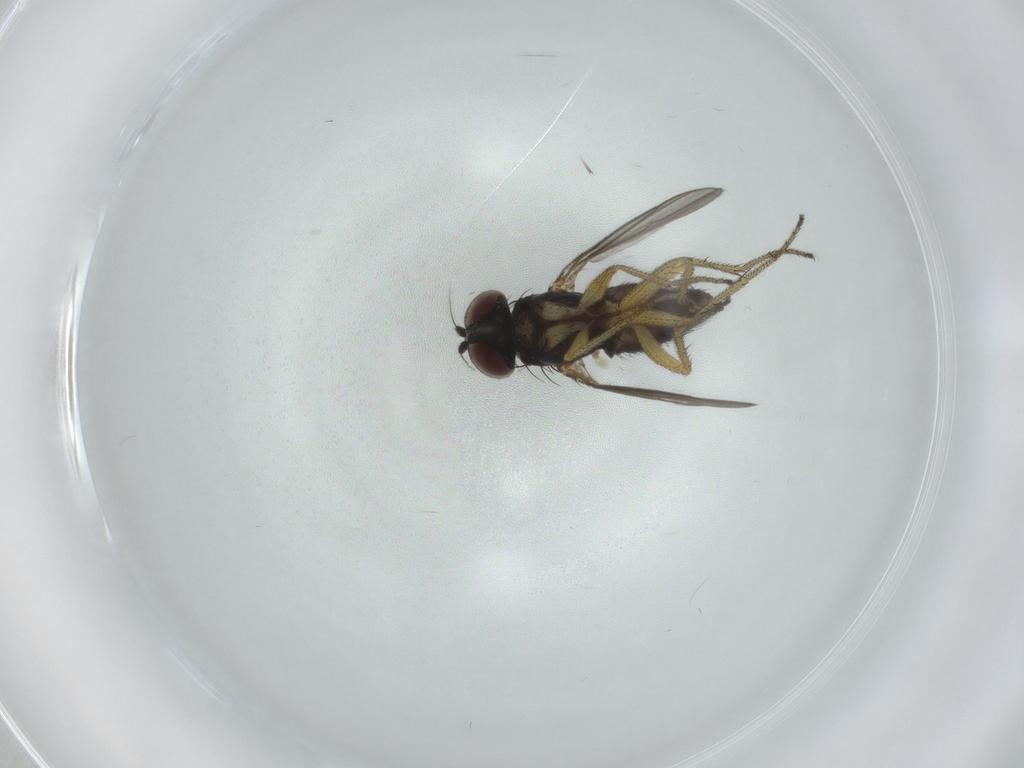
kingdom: Animalia
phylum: Arthropoda
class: Insecta
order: Diptera
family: Dolichopodidae
